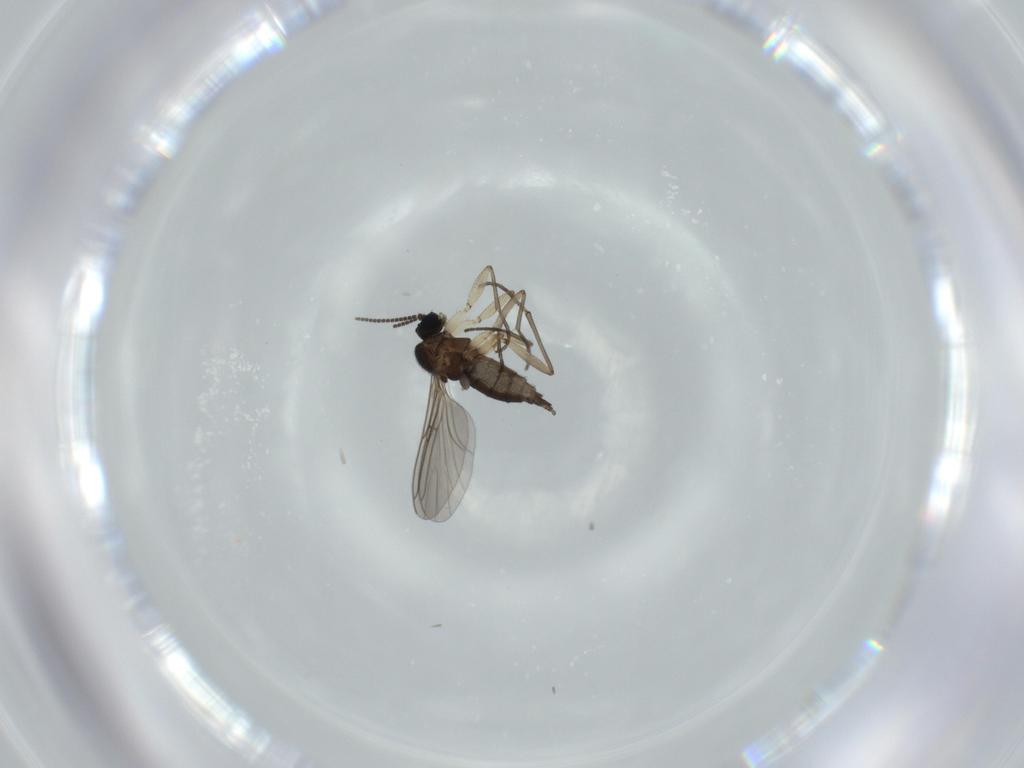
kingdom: Animalia
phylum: Arthropoda
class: Insecta
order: Diptera
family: Sciaridae
